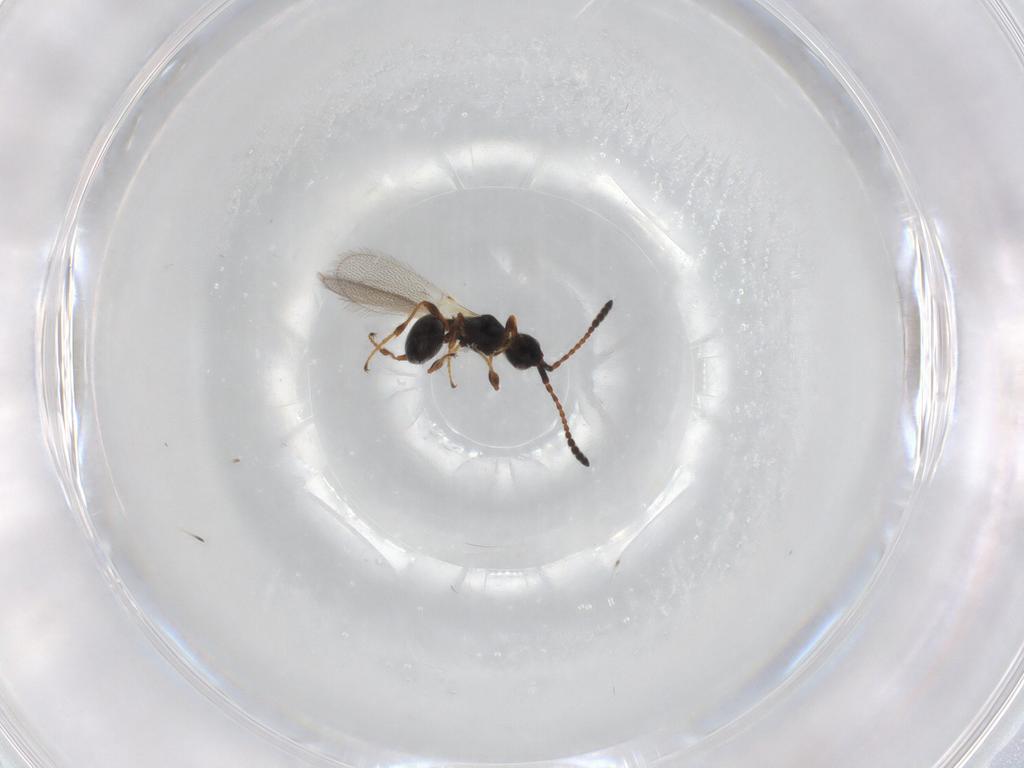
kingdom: Animalia
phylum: Arthropoda
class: Insecta
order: Hymenoptera
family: Diapriidae
